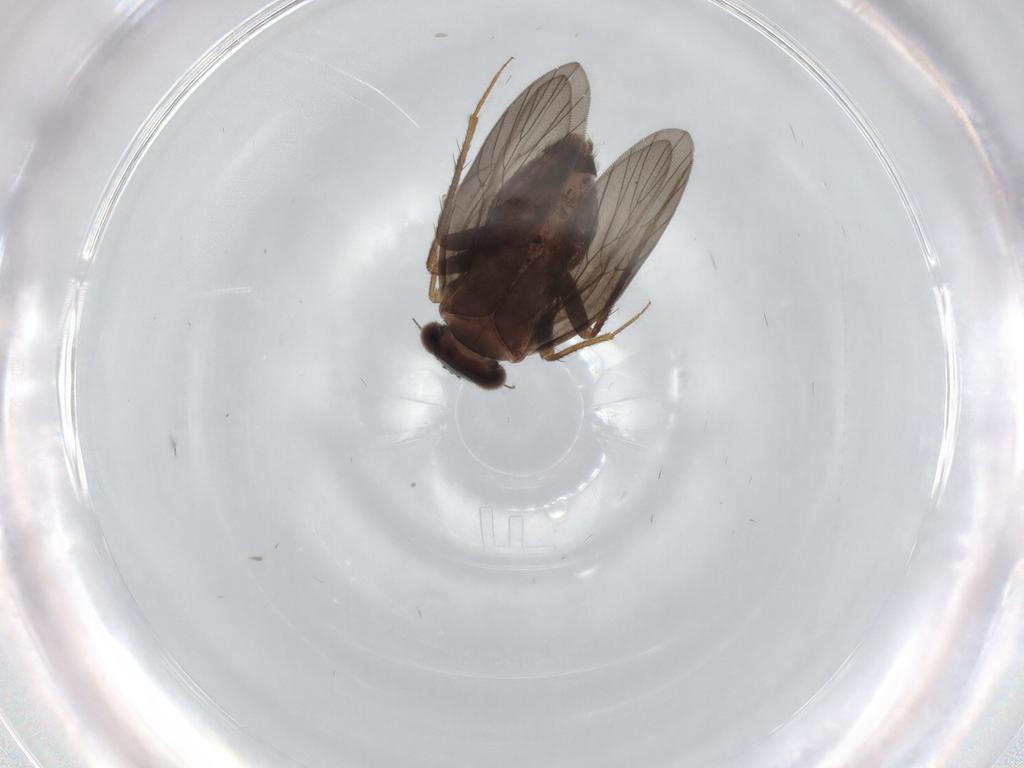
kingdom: Animalia
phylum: Arthropoda
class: Insecta
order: Psocodea
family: Lepidopsocidae
